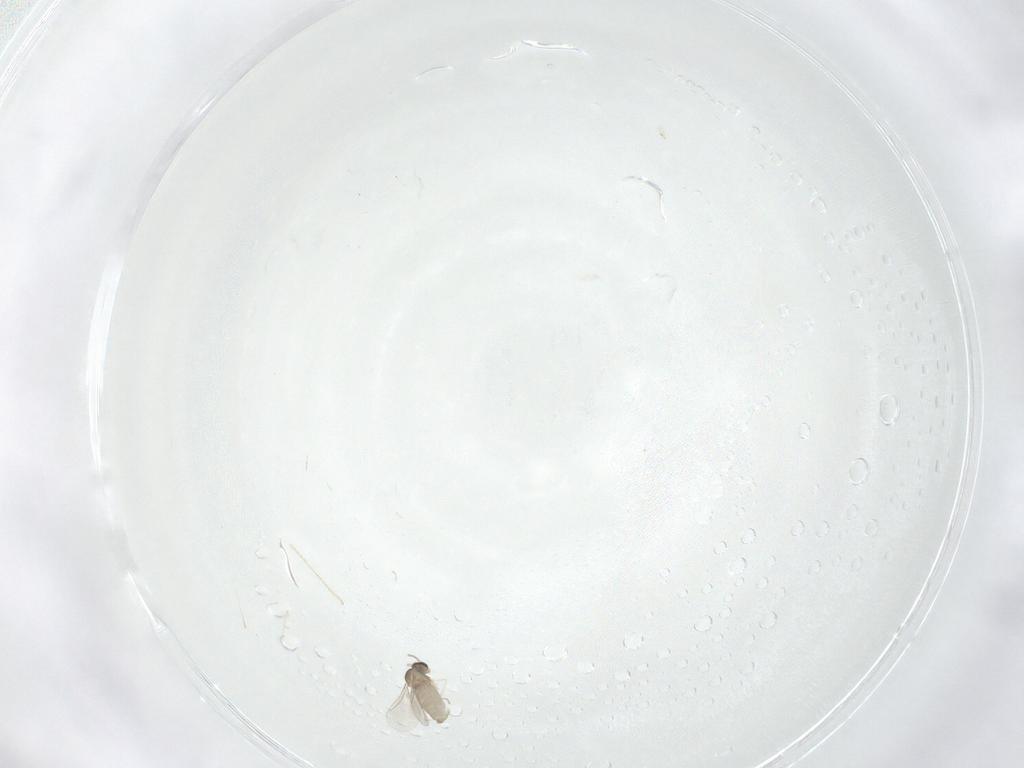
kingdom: Animalia
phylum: Arthropoda
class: Insecta
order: Diptera
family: Cecidomyiidae
